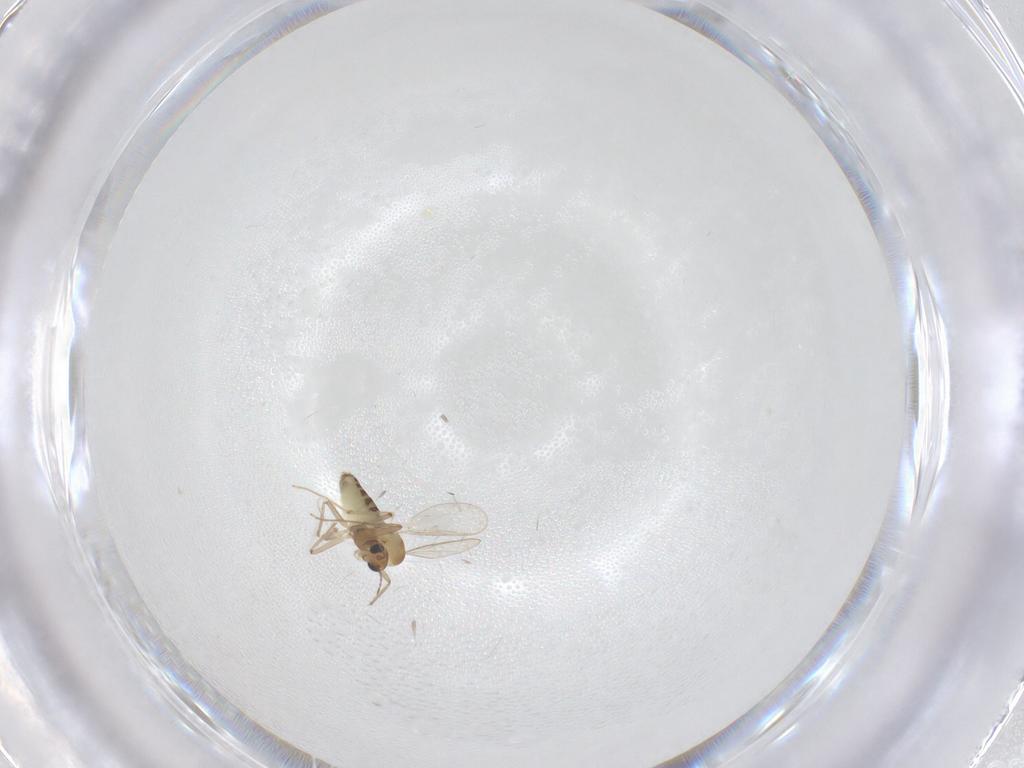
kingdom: Animalia
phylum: Arthropoda
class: Insecta
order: Diptera
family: Chironomidae
